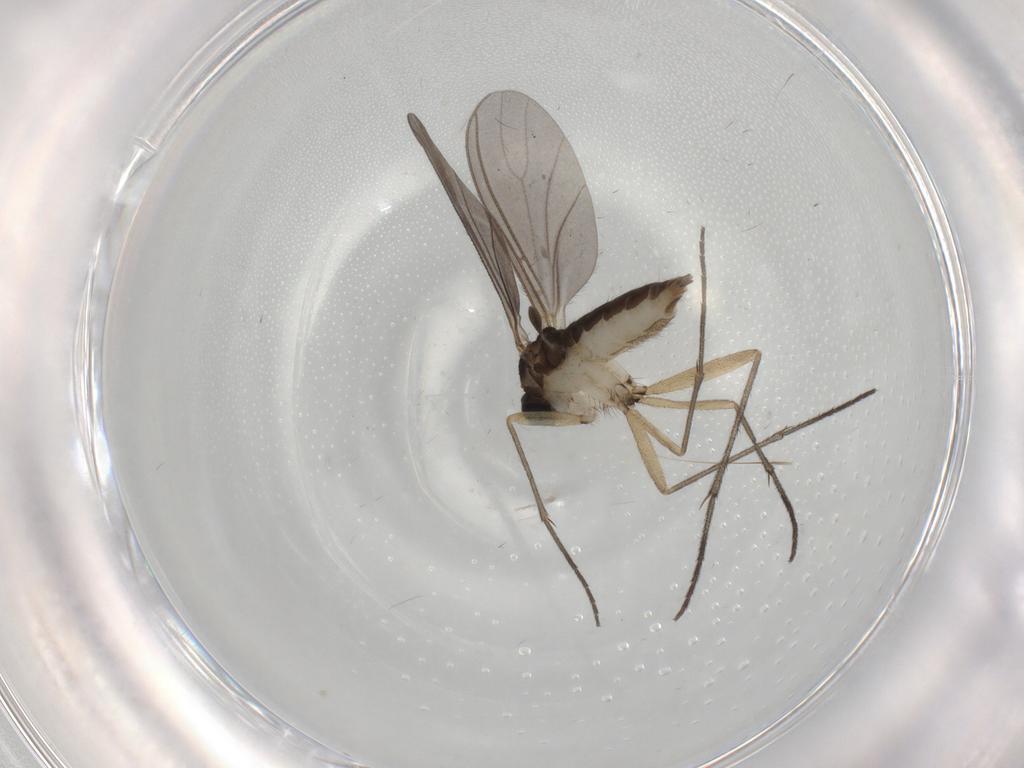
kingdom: Animalia
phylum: Arthropoda
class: Insecta
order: Diptera
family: Sciaridae
